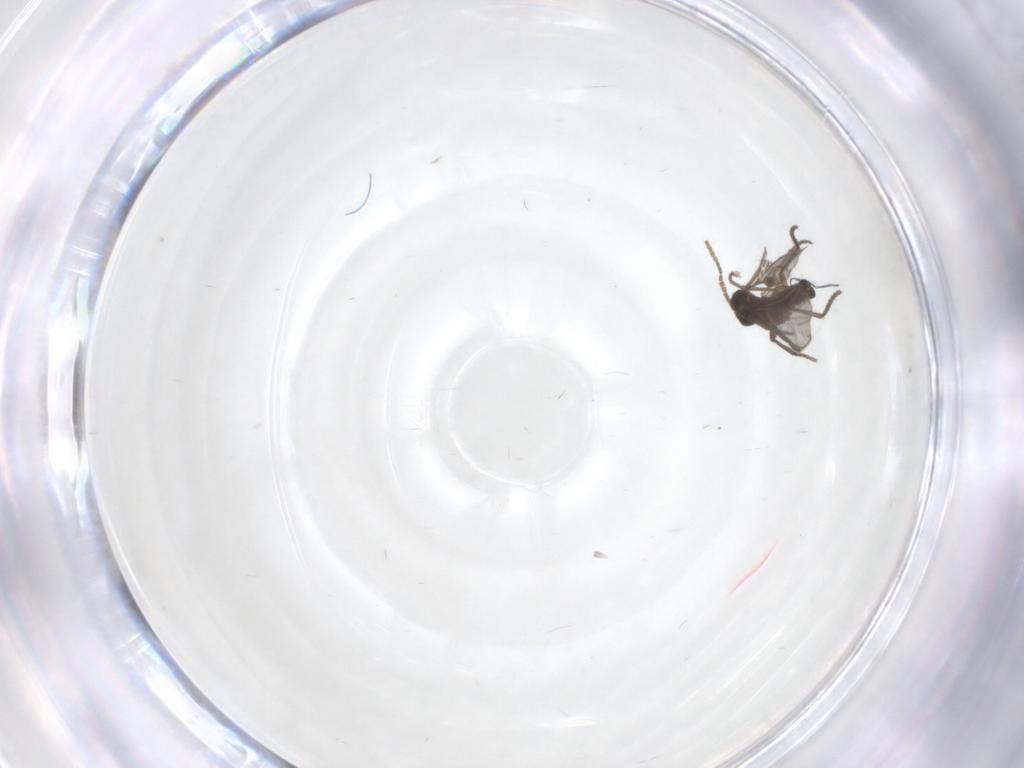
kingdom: Animalia
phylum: Arthropoda
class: Insecta
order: Diptera
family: Sciaridae
